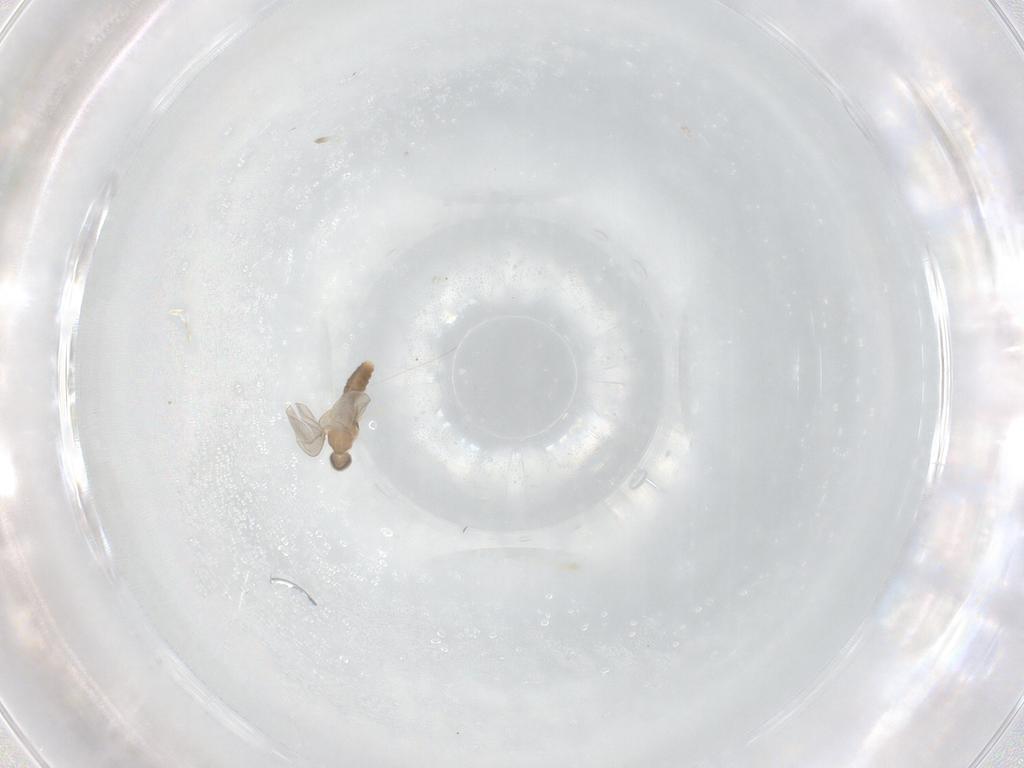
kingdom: Animalia
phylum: Arthropoda
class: Insecta
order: Diptera
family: Cecidomyiidae
